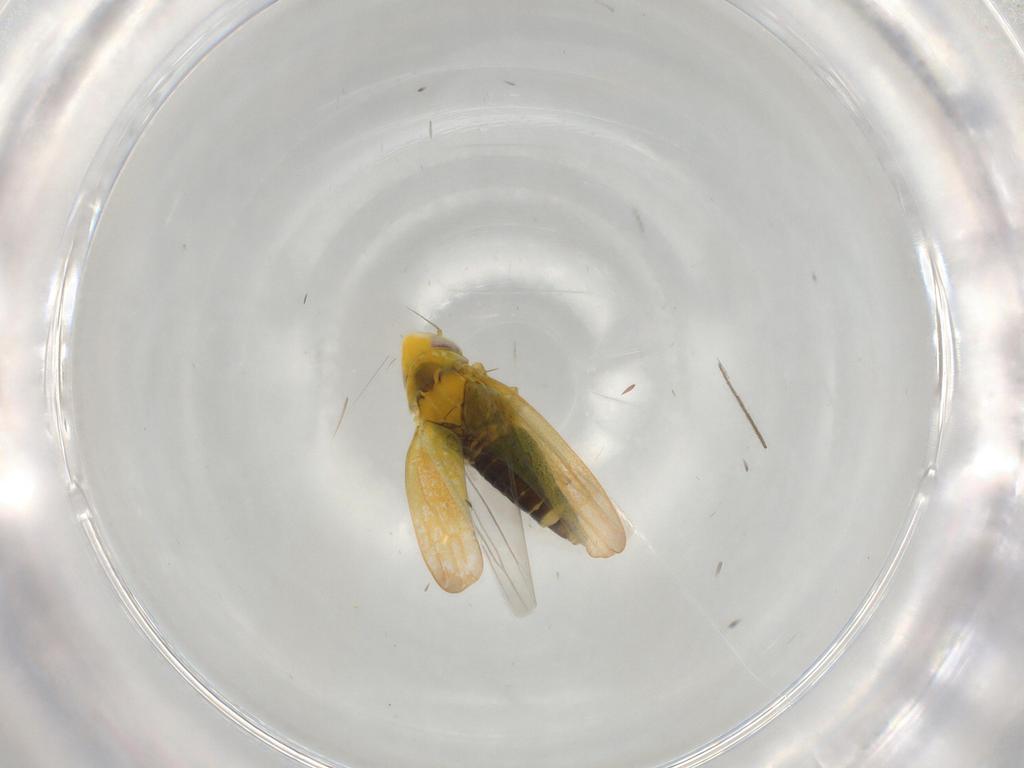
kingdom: Animalia
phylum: Arthropoda
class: Insecta
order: Hemiptera
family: Cicadellidae
